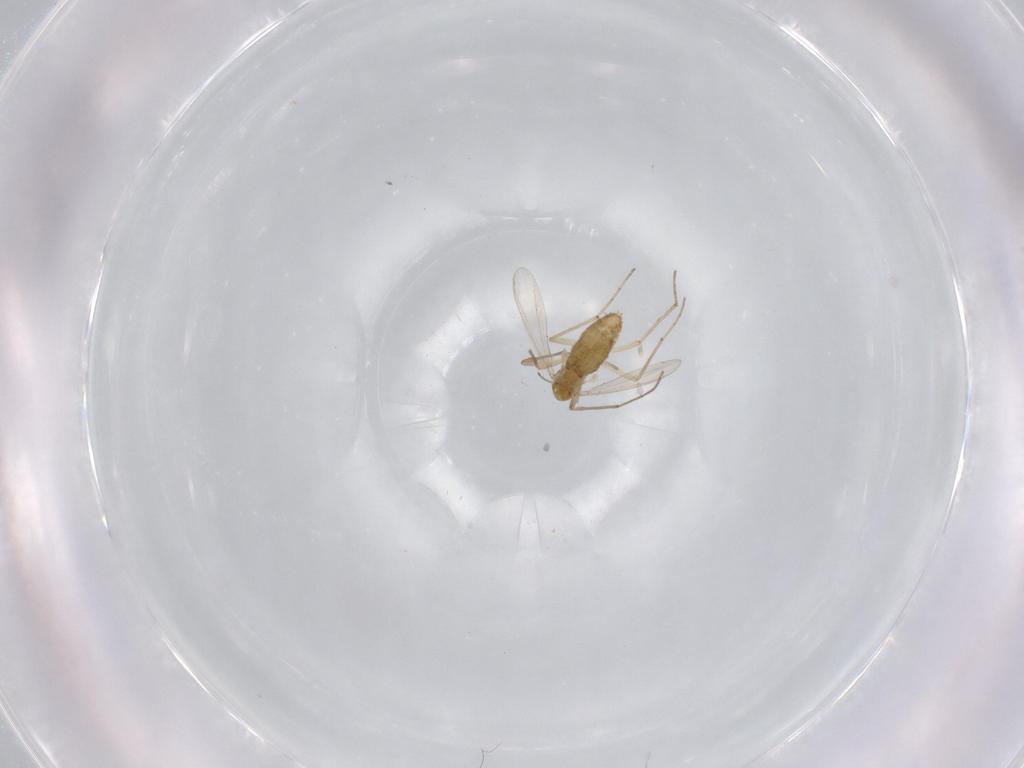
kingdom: Animalia
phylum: Arthropoda
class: Insecta
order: Diptera
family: Chironomidae
